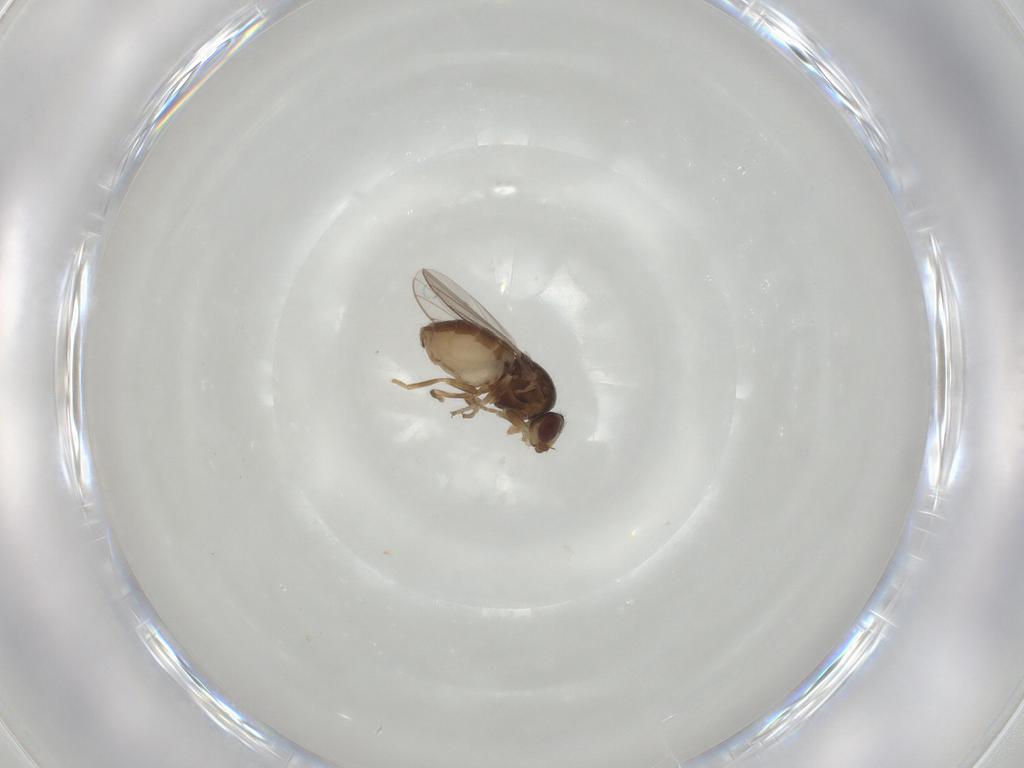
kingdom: Animalia
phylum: Arthropoda
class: Insecta
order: Diptera
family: Chloropidae
